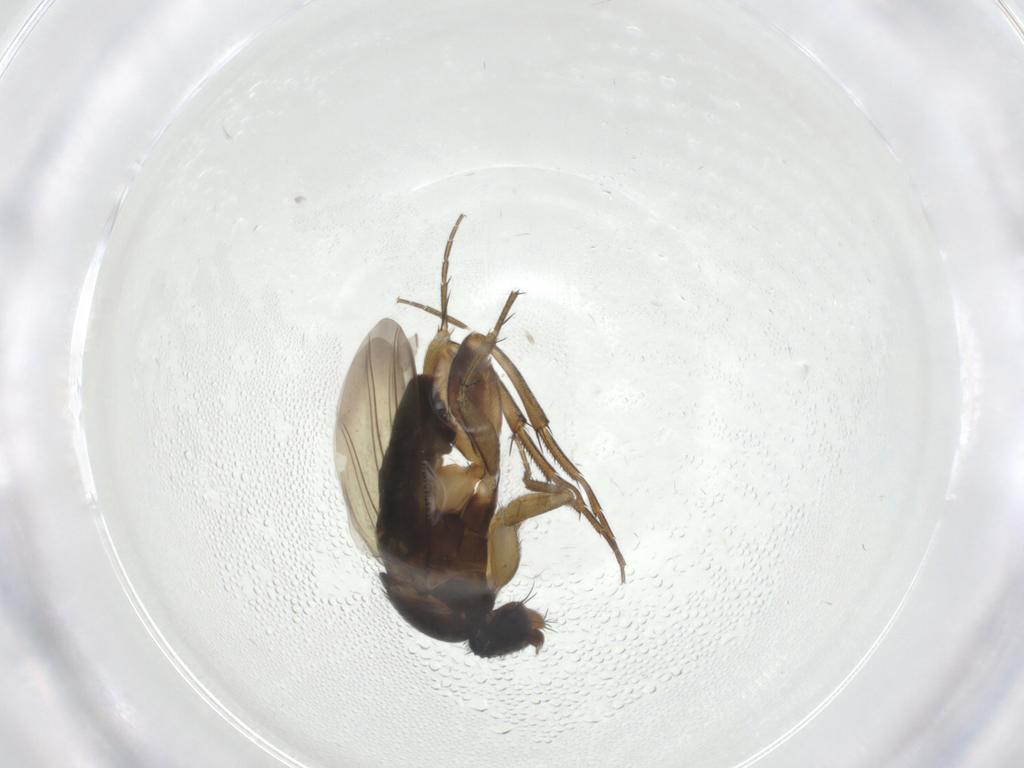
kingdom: Animalia
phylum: Arthropoda
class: Insecta
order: Diptera
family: Phoridae
